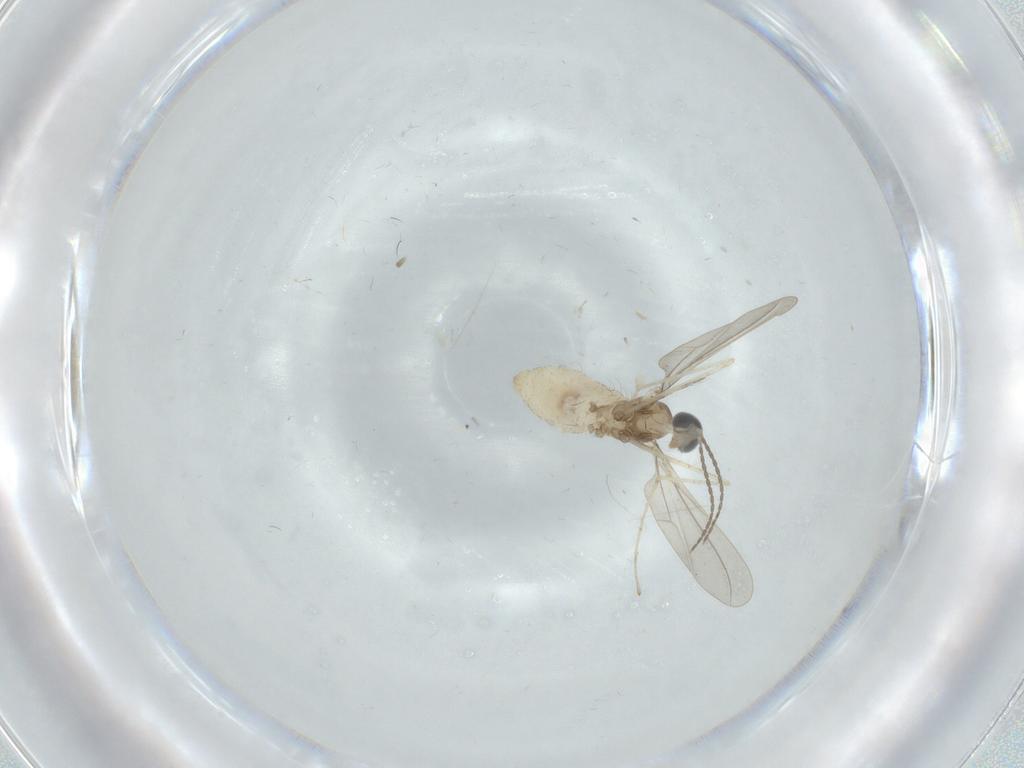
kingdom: Animalia
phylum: Arthropoda
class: Insecta
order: Diptera
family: Cecidomyiidae
